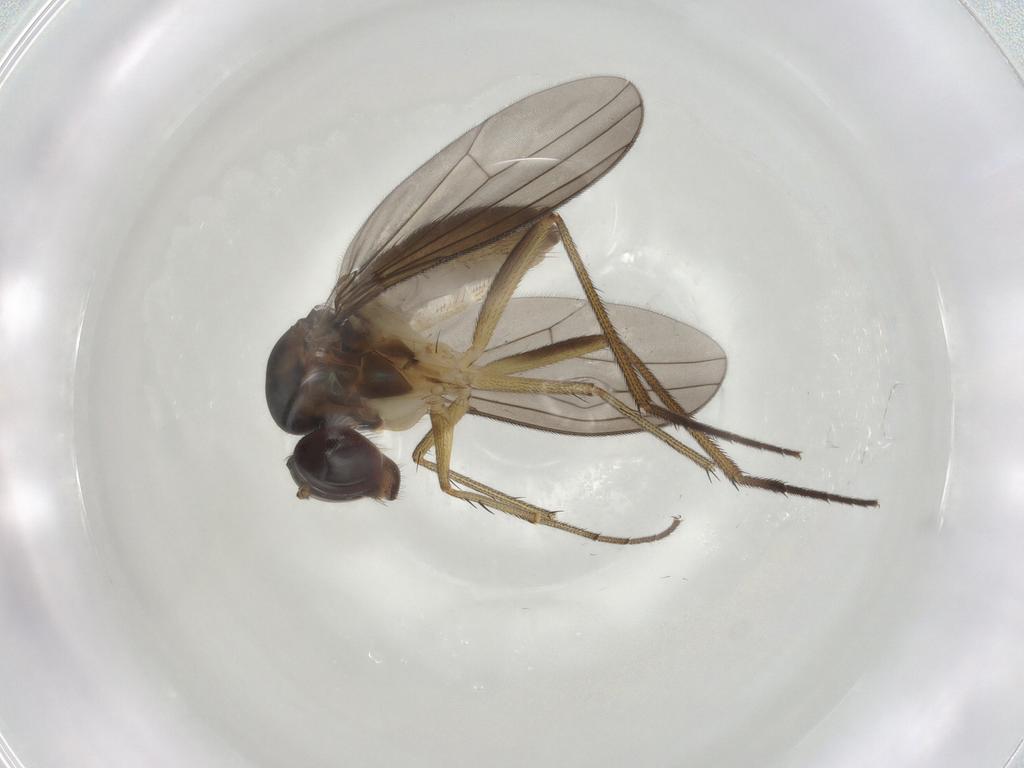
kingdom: Animalia
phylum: Arthropoda
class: Insecta
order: Diptera
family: Dolichopodidae
